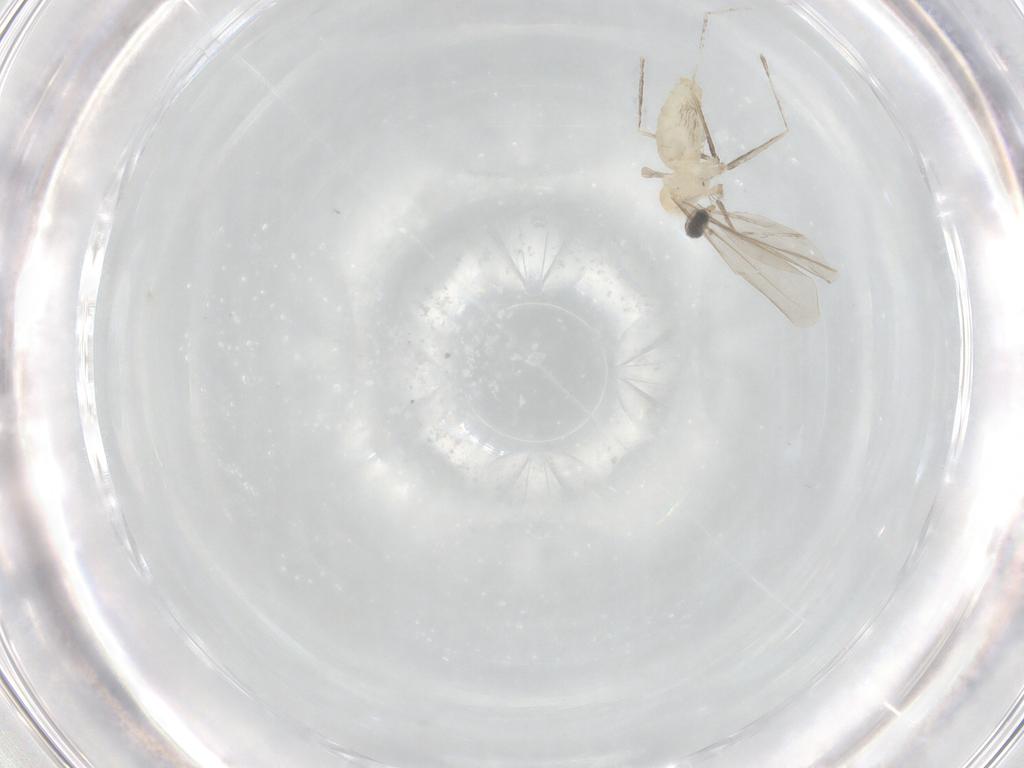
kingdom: Animalia
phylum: Arthropoda
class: Insecta
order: Diptera
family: Cecidomyiidae
